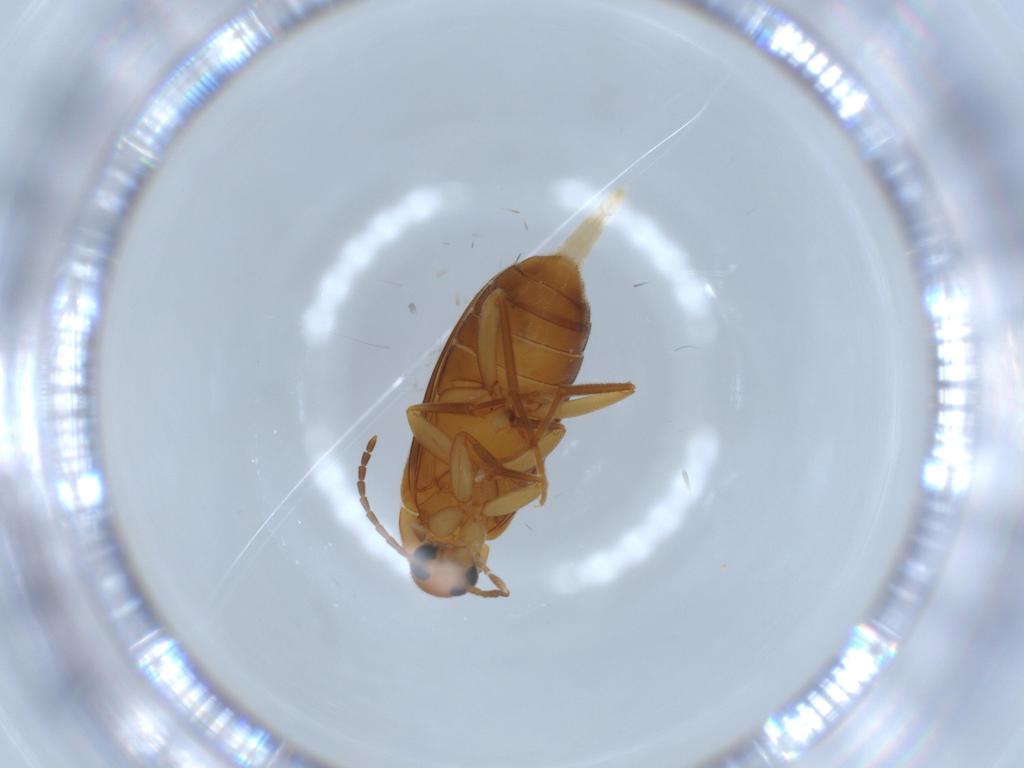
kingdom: Animalia
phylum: Arthropoda
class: Insecta
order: Coleoptera
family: Scraptiidae
